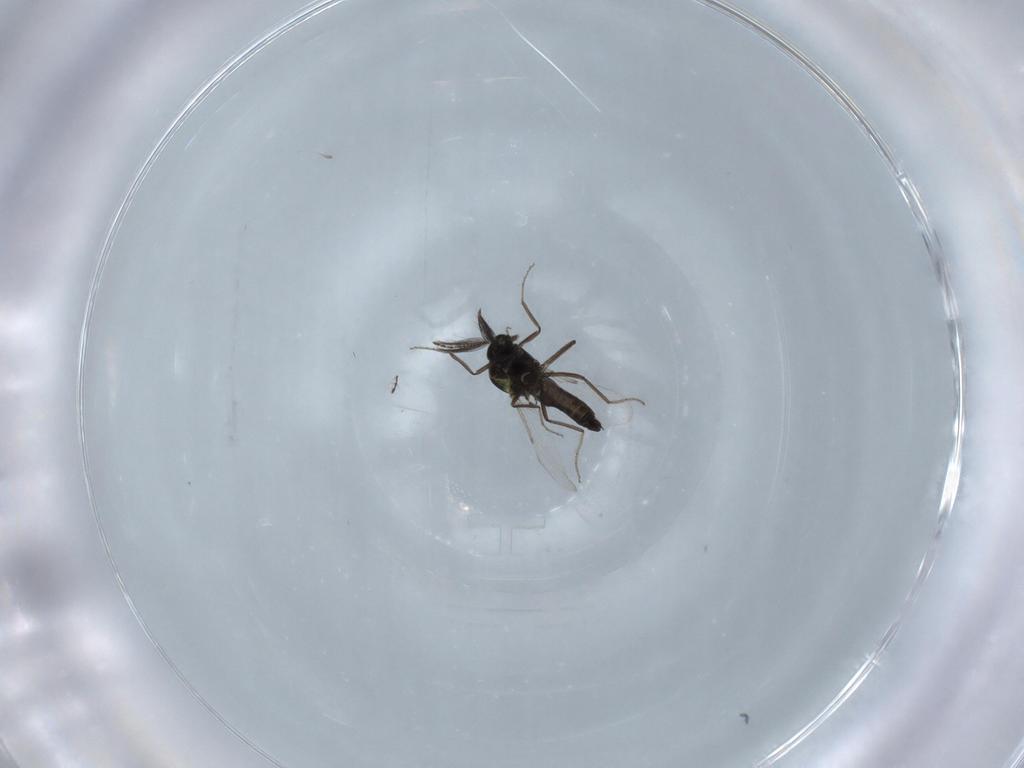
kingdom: Animalia
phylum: Arthropoda
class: Insecta
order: Diptera
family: Ceratopogonidae
